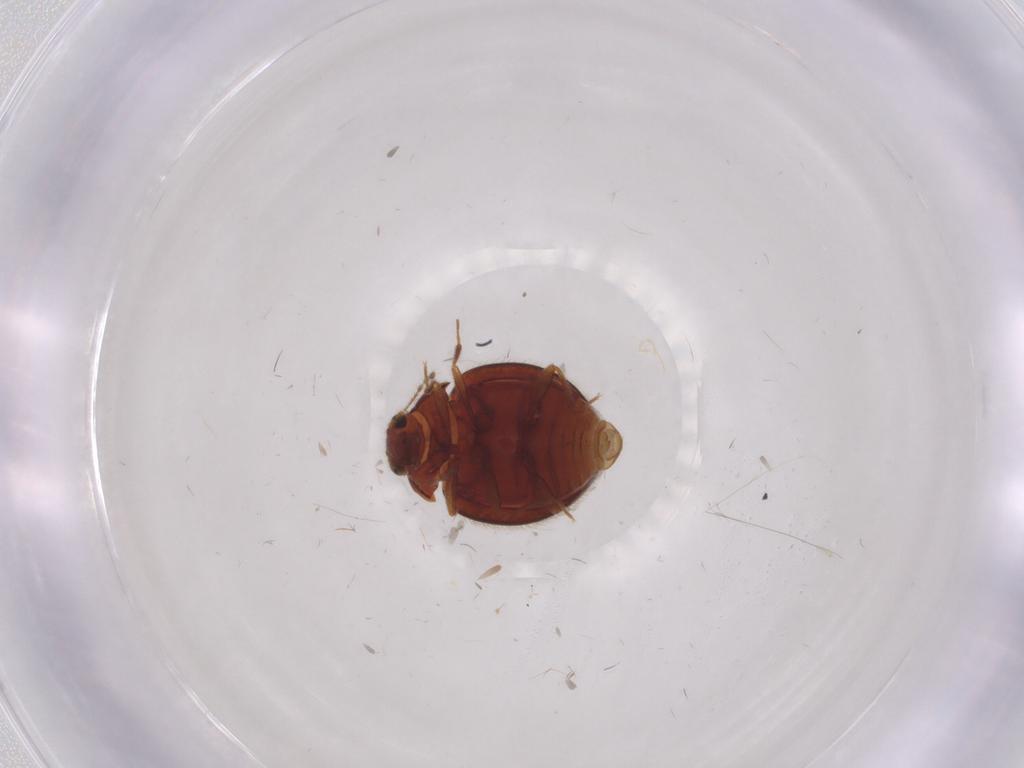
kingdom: Animalia
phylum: Arthropoda
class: Insecta
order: Coleoptera
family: Anamorphidae
